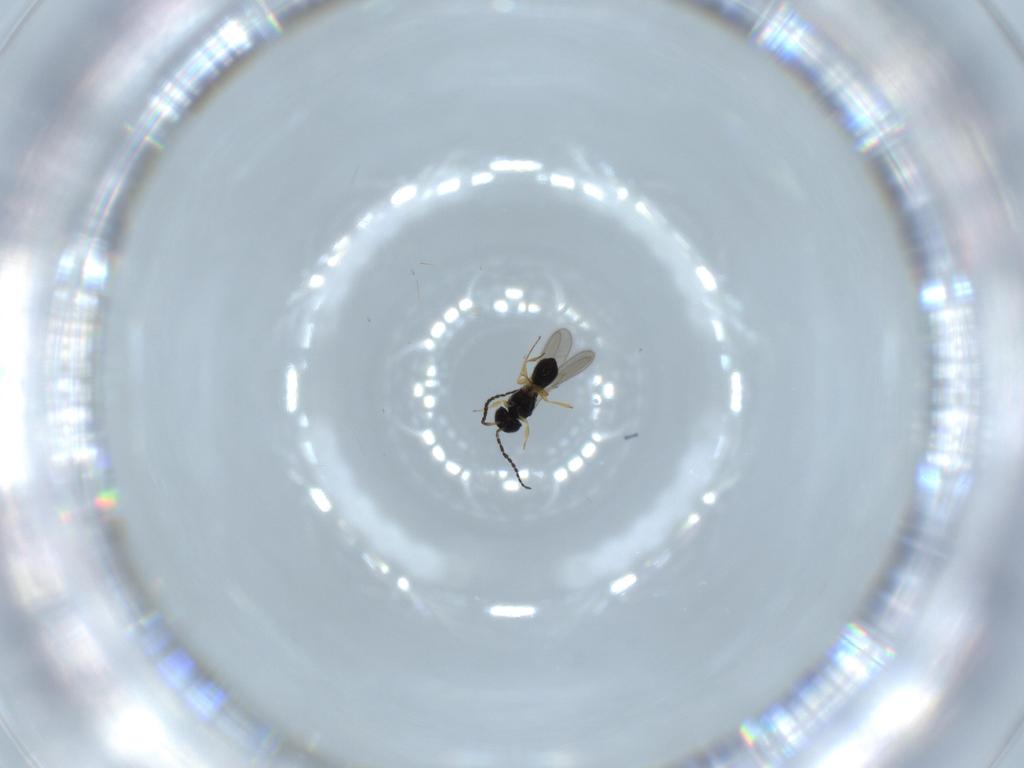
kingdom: Animalia
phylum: Arthropoda
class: Insecta
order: Hymenoptera
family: Scelionidae
